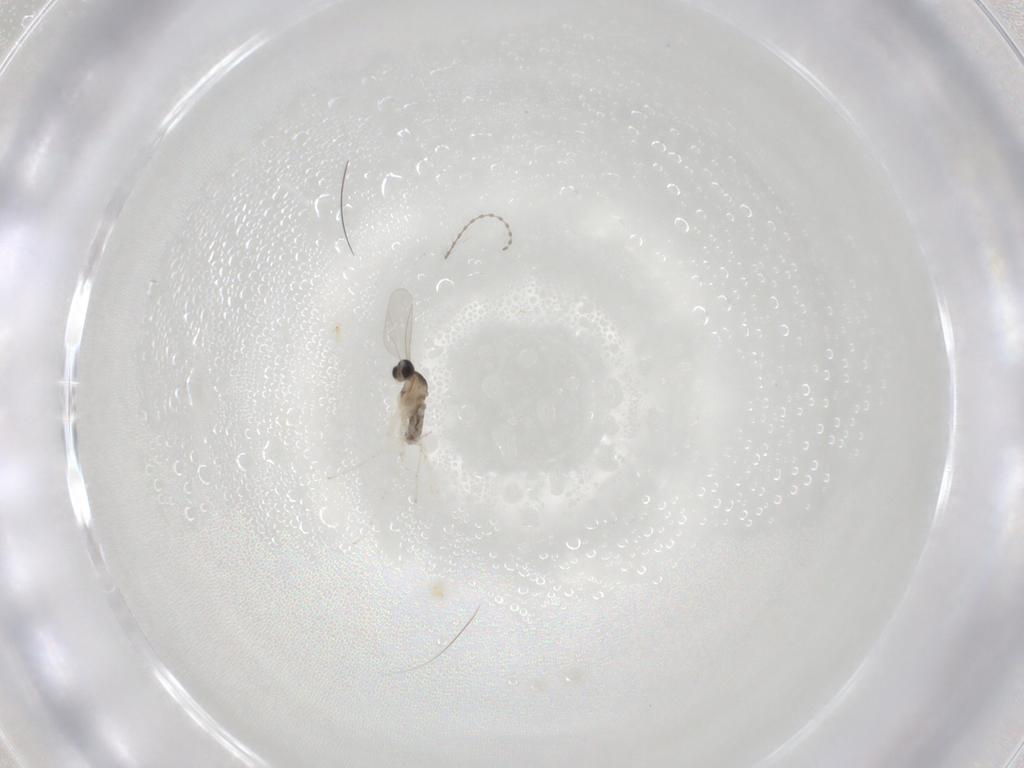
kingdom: Animalia
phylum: Arthropoda
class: Insecta
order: Diptera
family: Cecidomyiidae
